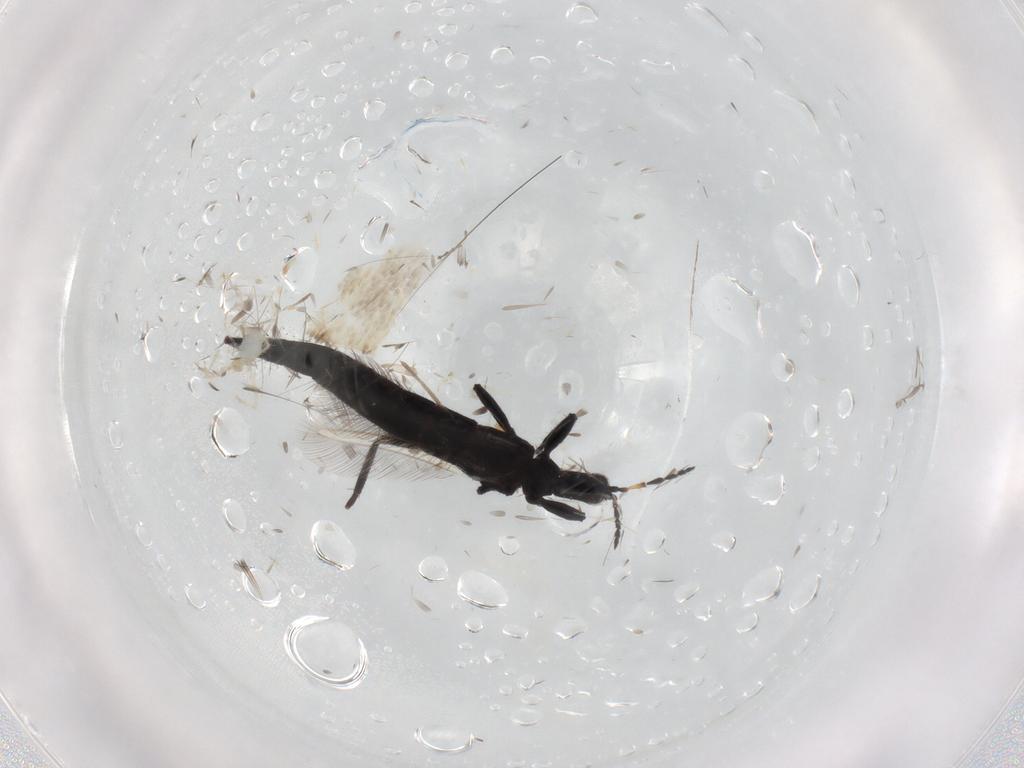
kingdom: Animalia
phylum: Arthropoda
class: Insecta
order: Thysanoptera
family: Phlaeothripidae
